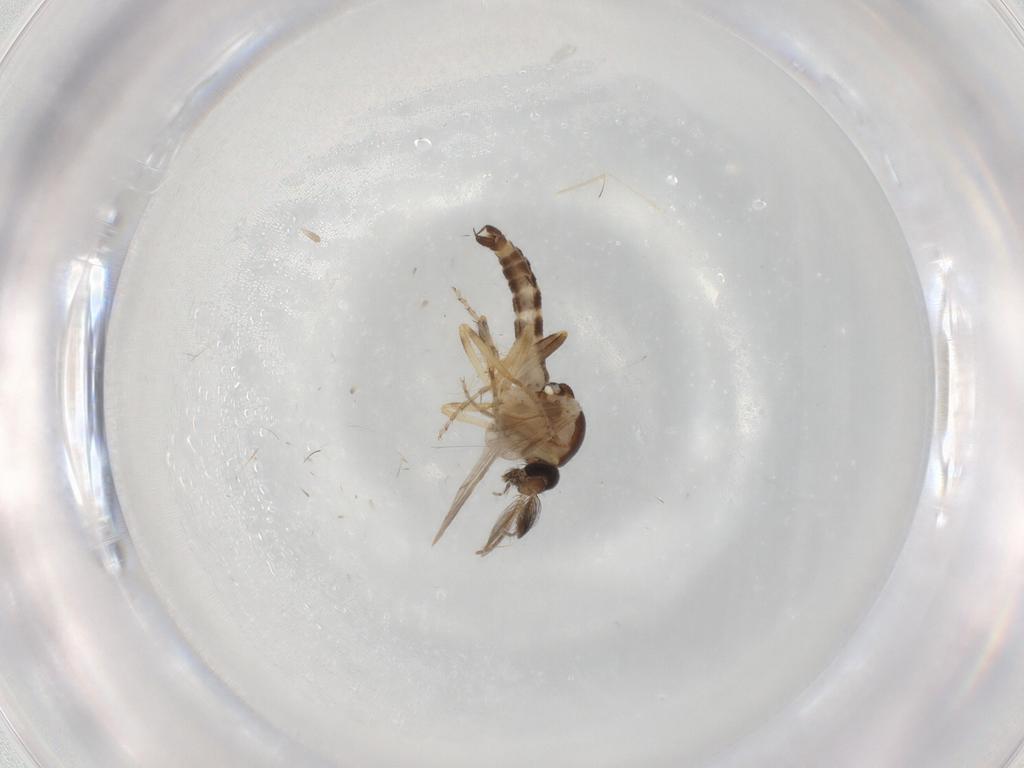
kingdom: Animalia
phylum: Arthropoda
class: Insecta
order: Diptera
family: Ceratopogonidae
